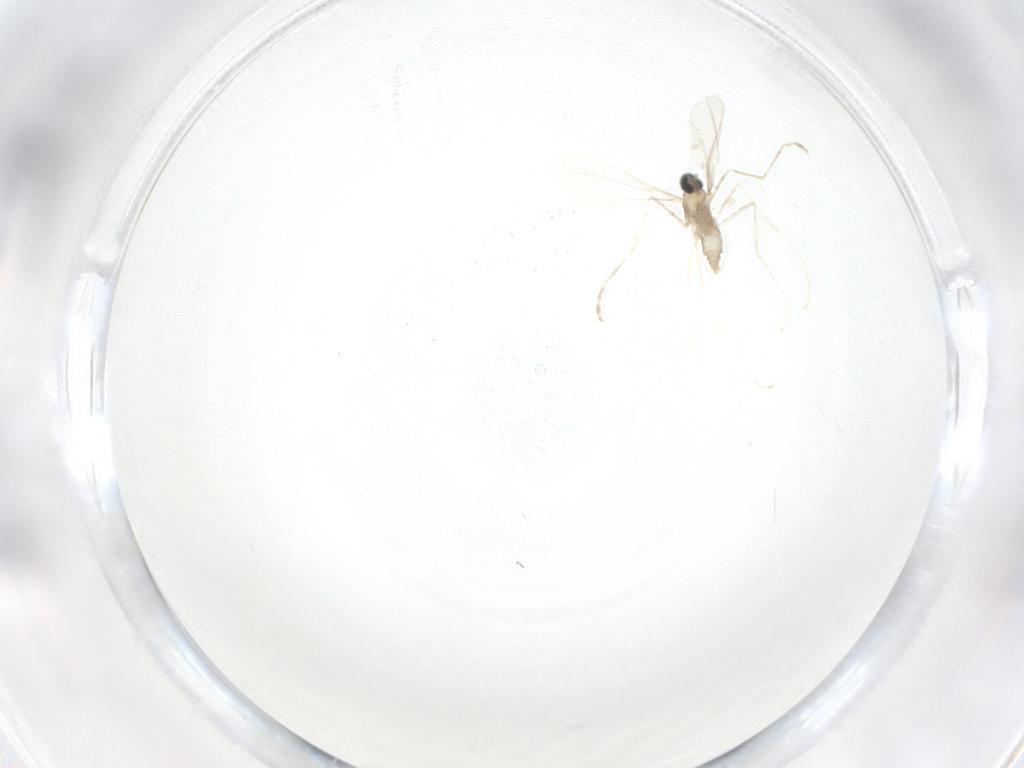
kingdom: Animalia
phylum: Arthropoda
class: Insecta
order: Diptera
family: Cecidomyiidae
